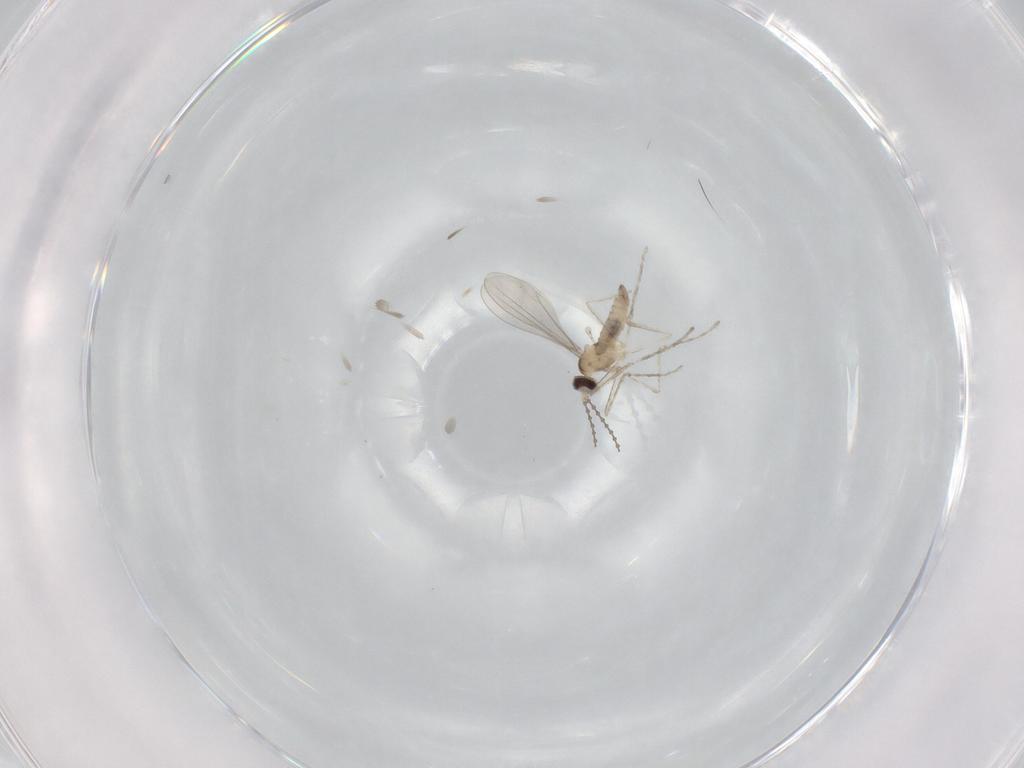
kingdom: Animalia
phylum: Arthropoda
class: Insecta
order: Diptera
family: Cecidomyiidae
